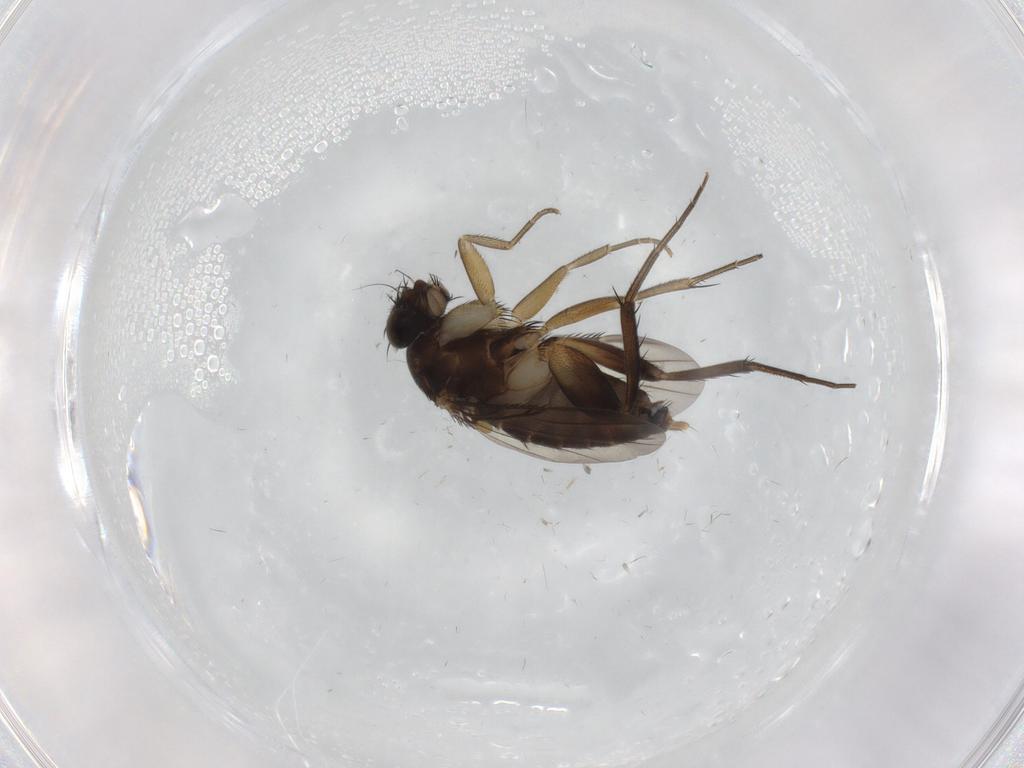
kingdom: Animalia
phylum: Arthropoda
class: Insecta
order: Diptera
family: Phoridae
